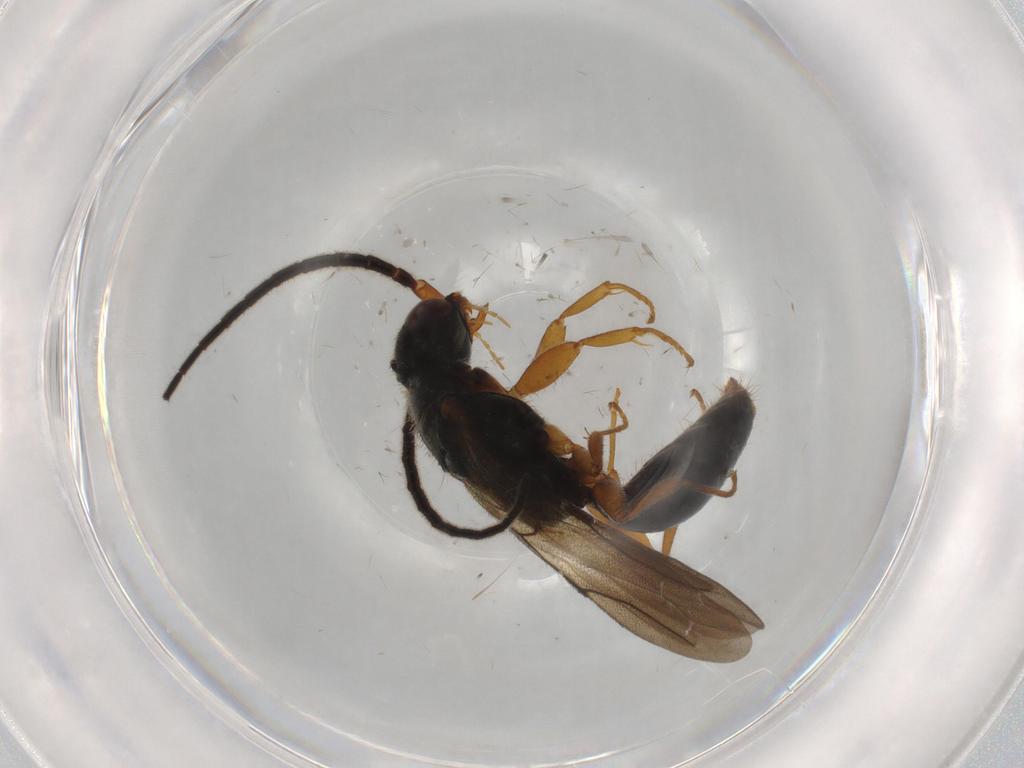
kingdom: Animalia
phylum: Arthropoda
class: Insecta
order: Hymenoptera
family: Bethylidae
